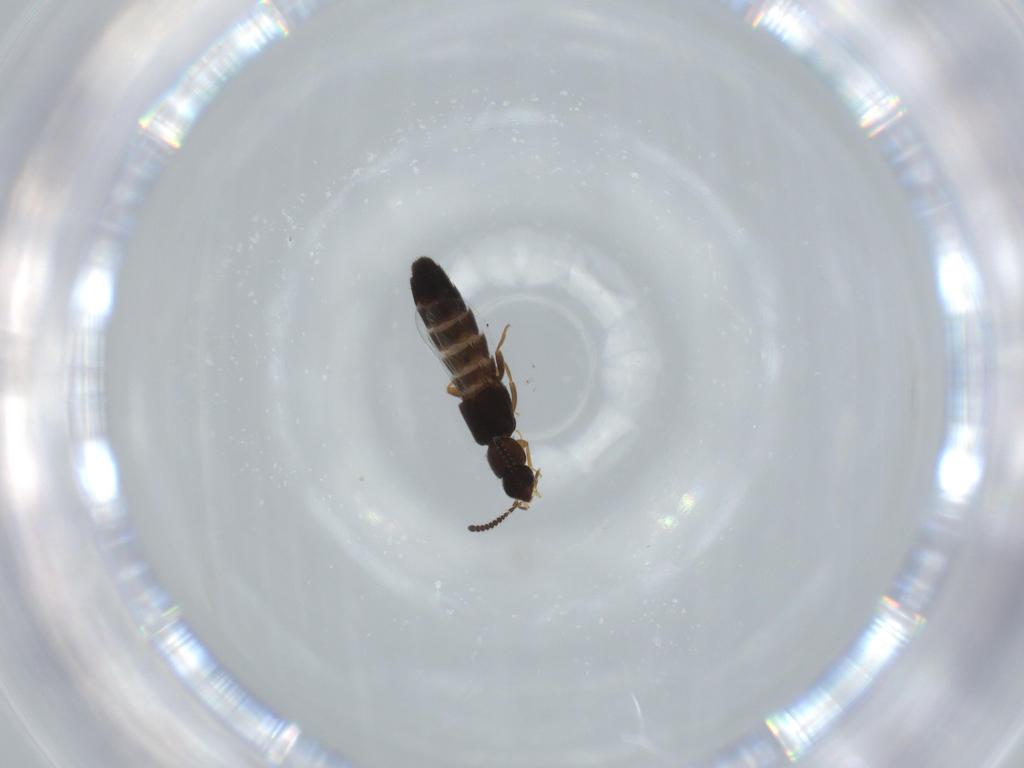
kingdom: Animalia
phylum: Arthropoda
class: Insecta
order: Coleoptera
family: Staphylinidae
